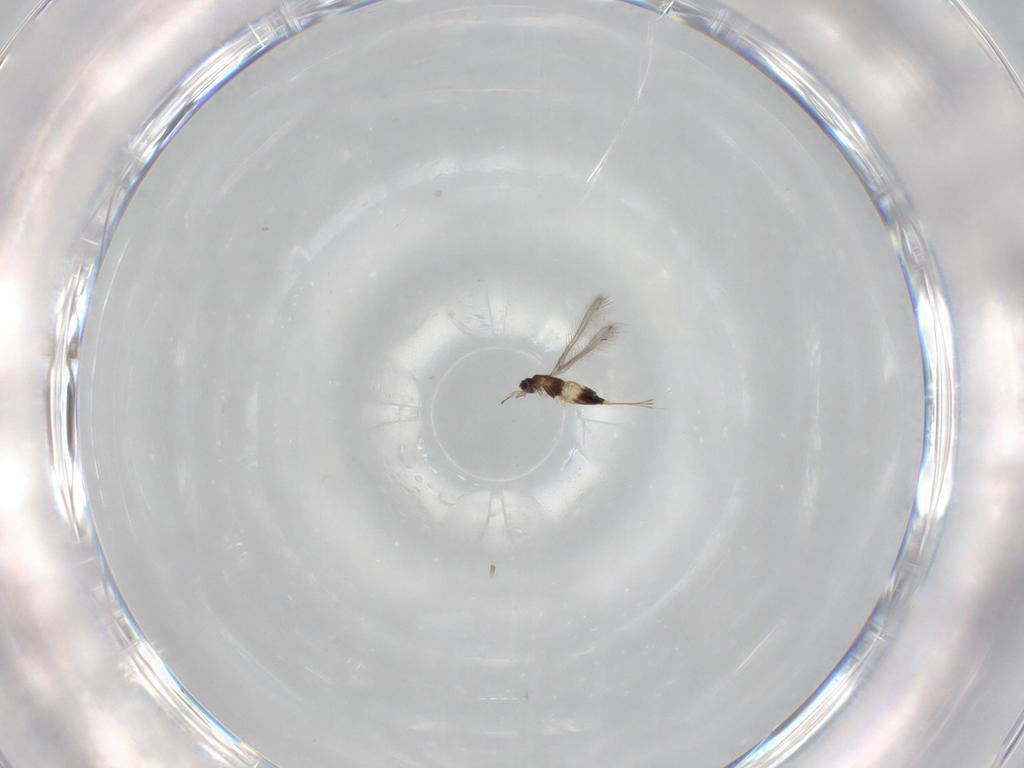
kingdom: Animalia
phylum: Arthropoda
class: Insecta
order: Hymenoptera
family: Mymaridae
